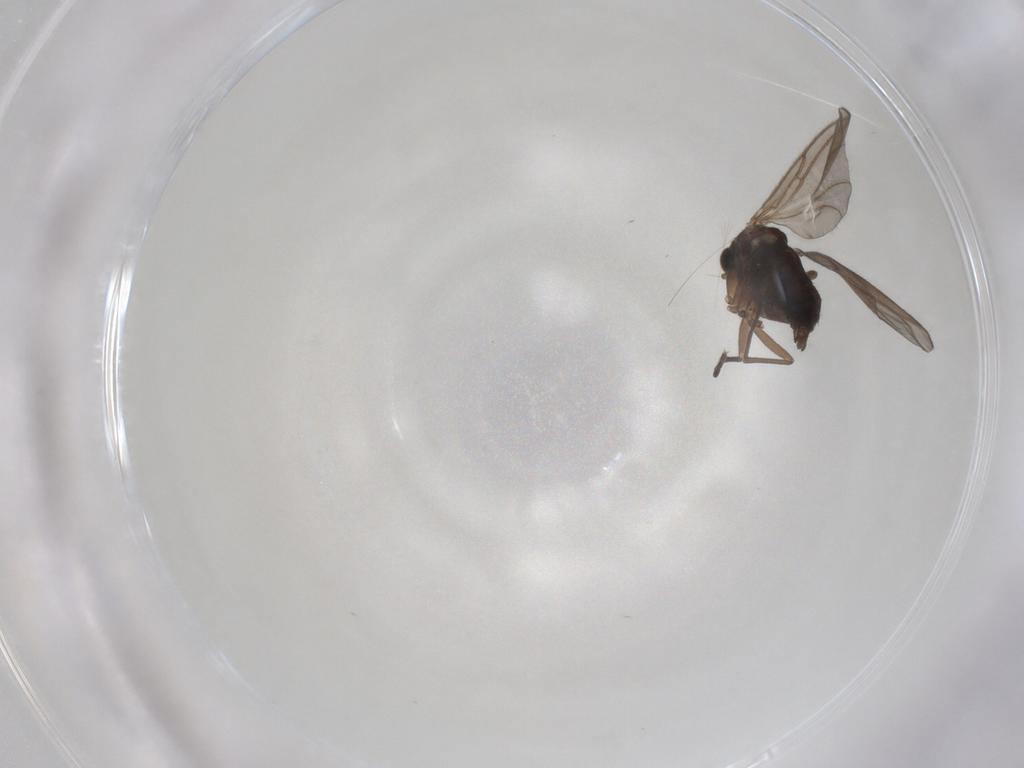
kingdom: Animalia
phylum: Arthropoda
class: Insecta
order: Diptera
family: Sciaridae
